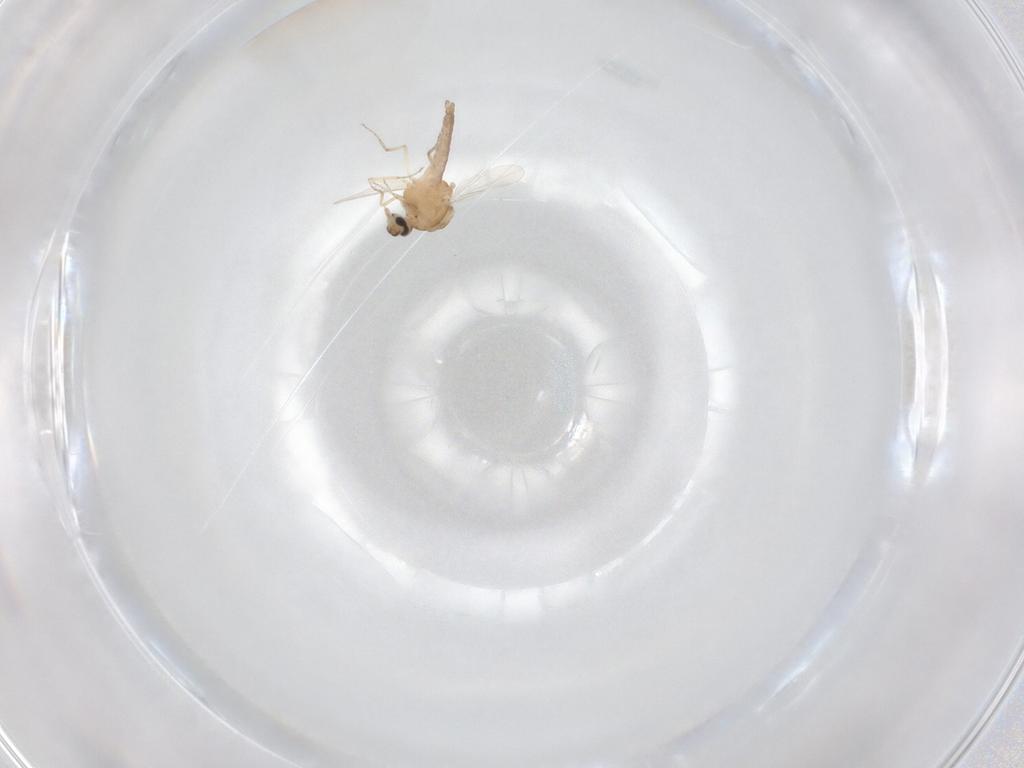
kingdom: Animalia
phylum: Arthropoda
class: Insecta
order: Diptera
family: Ceratopogonidae
